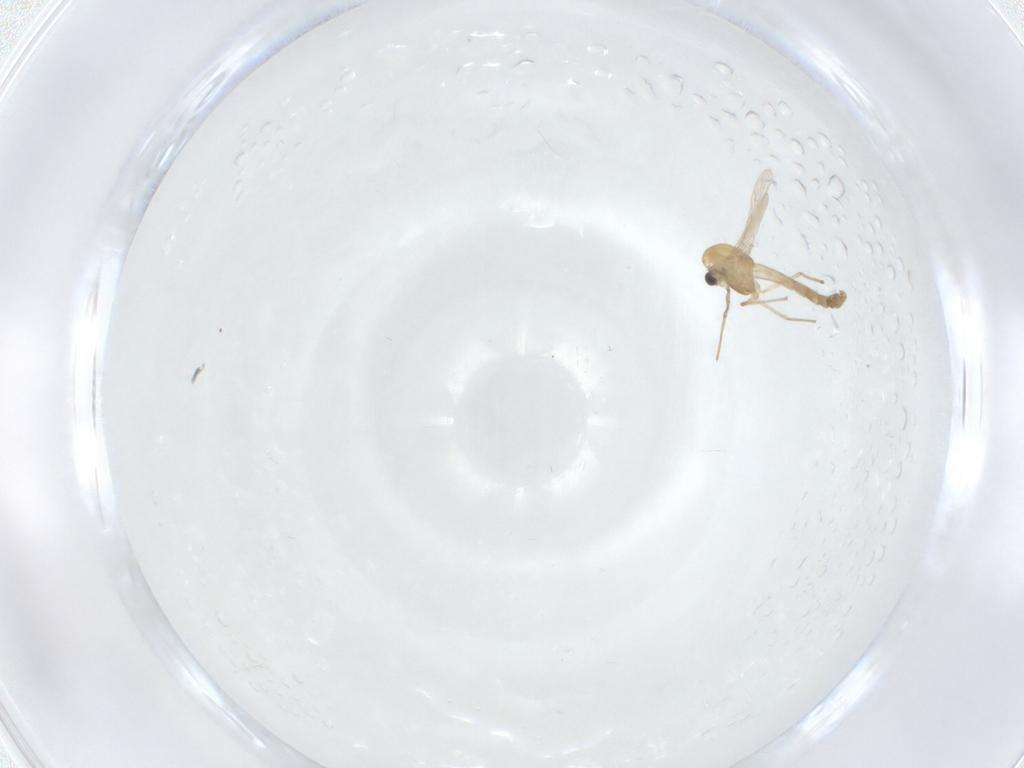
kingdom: Animalia
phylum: Arthropoda
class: Insecta
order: Diptera
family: Chironomidae
